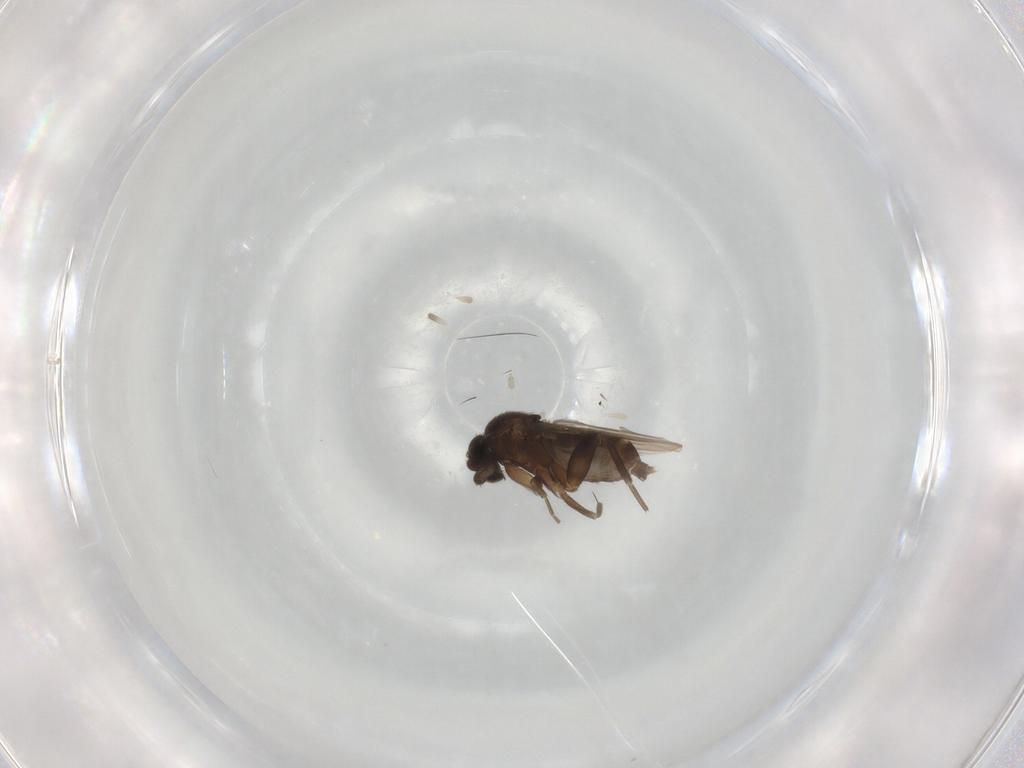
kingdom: Animalia
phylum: Arthropoda
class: Insecta
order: Diptera
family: Phoridae
